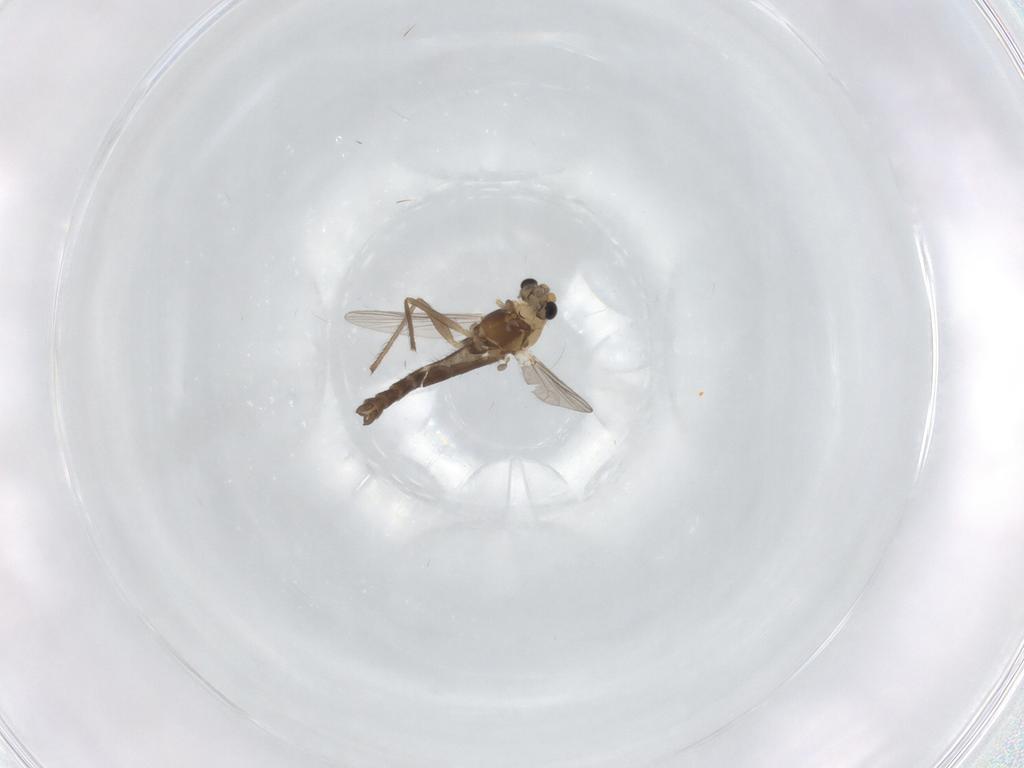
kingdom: Animalia
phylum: Arthropoda
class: Insecta
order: Diptera
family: Chironomidae
